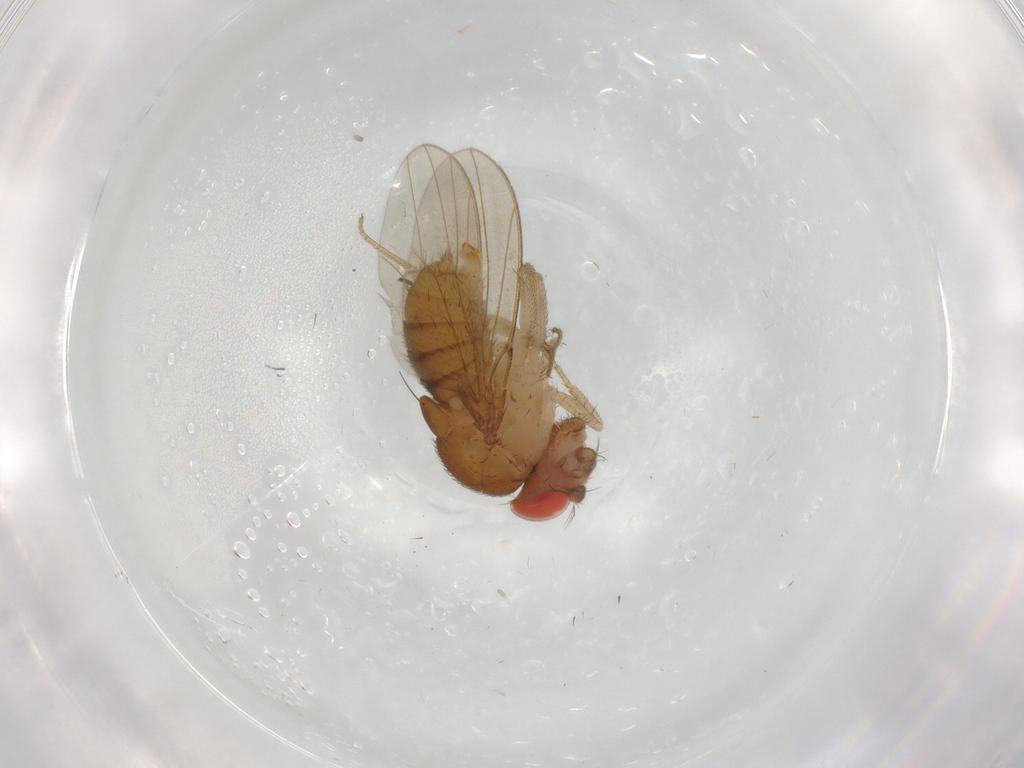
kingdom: Animalia
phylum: Arthropoda
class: Insecta
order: Diptera
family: Drosophilidae
